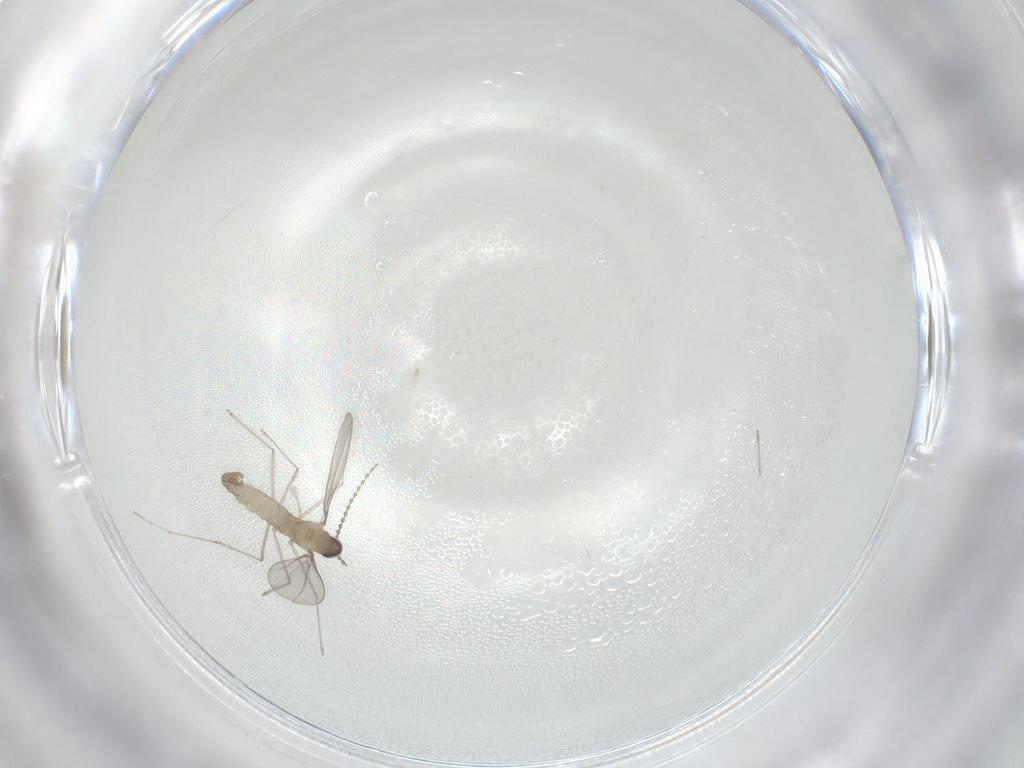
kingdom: Animalia
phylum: Arthropoda
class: Insecta
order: Diptera
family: Cecidomyiidae
